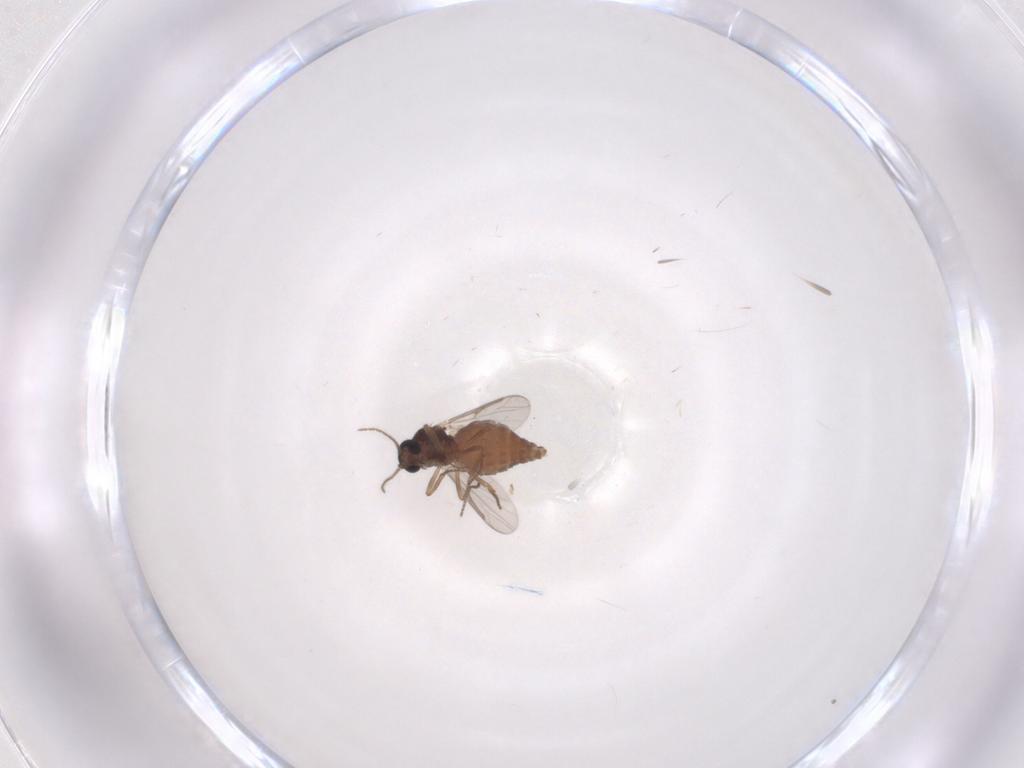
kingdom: Animalia
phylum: Arthropoda
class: Insecta
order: Diptera
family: Ceratopogonidae
